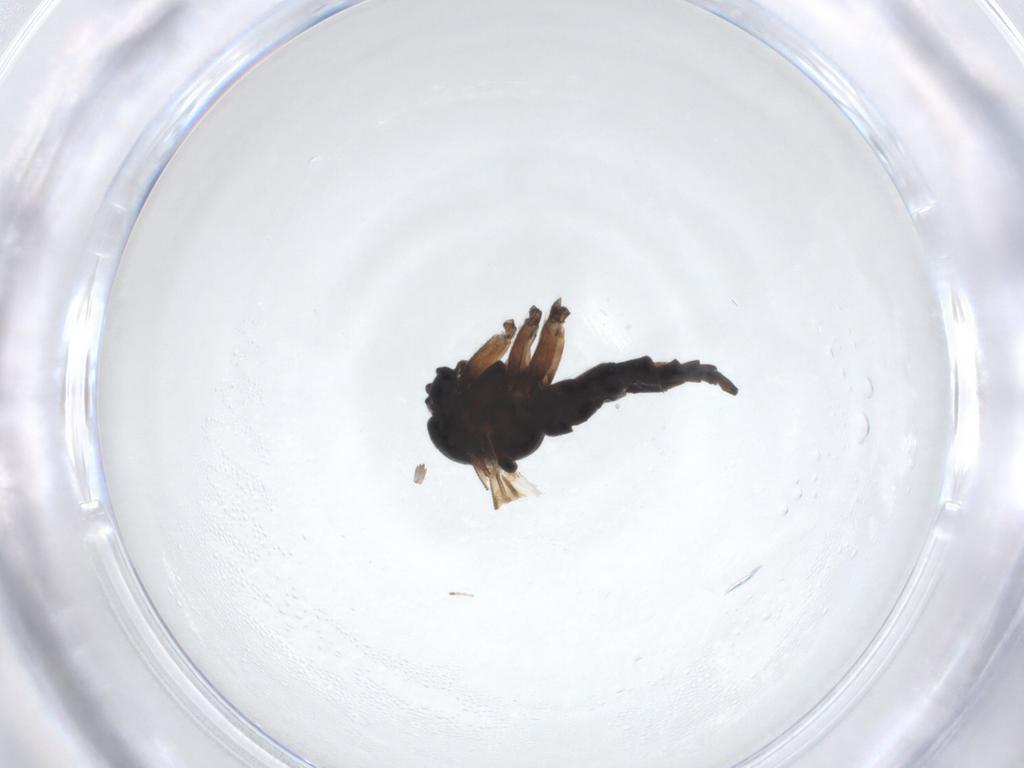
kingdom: Animalia
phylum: Arthropoda
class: Insecta
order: Diptera
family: Sciaridae
